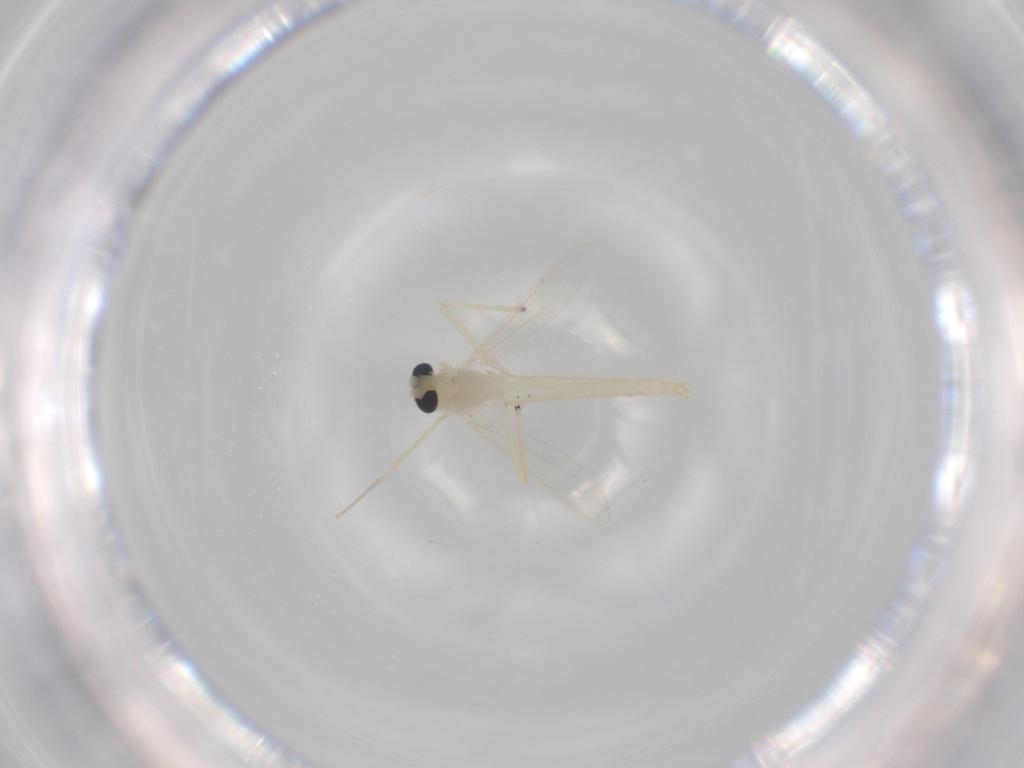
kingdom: Animalia
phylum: Arthropoda
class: Insecta
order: Diptera
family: Chironomidae
